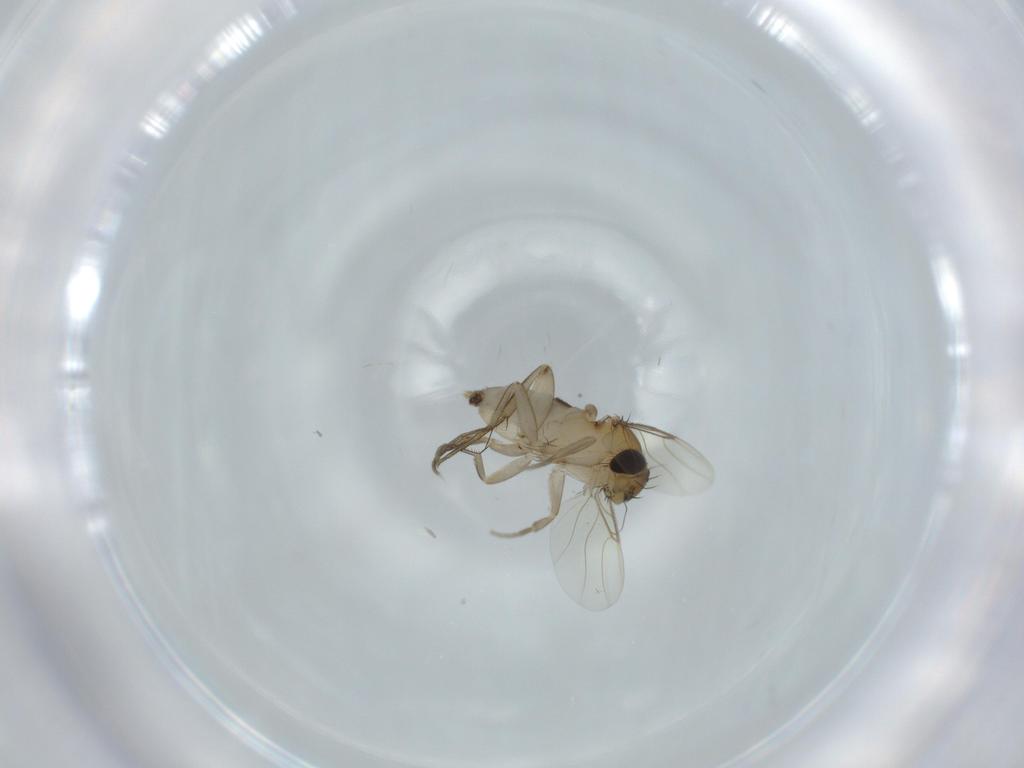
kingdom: Animalia
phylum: Arthropoda
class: Insecta
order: Diptera
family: Phoridae
